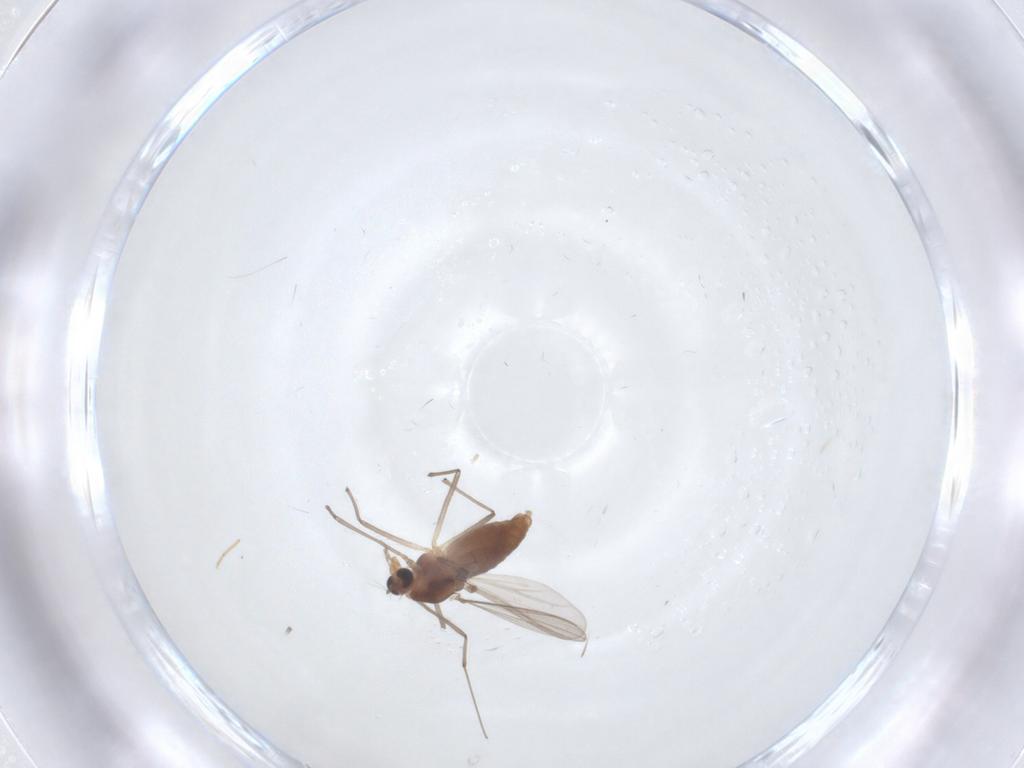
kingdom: Animalia
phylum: Arthropoda
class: Insecta
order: Diptera
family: Chironomidae
